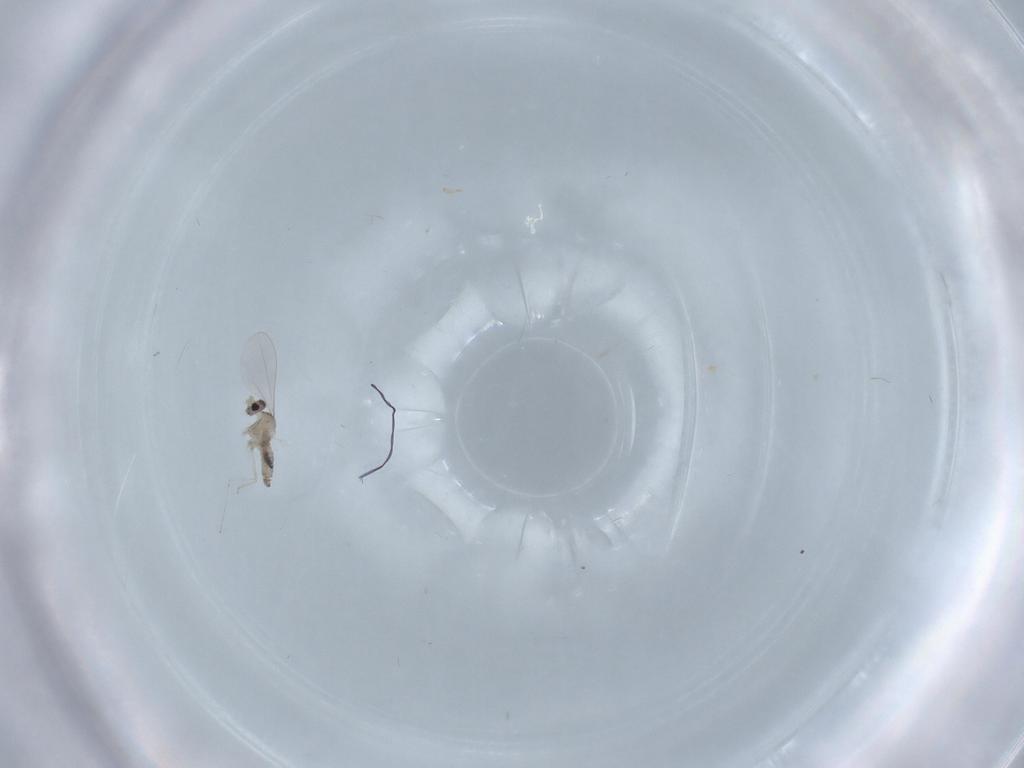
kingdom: Animalia
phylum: Arthropoda
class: Insecta
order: Diptera
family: Cecidomyiidae
